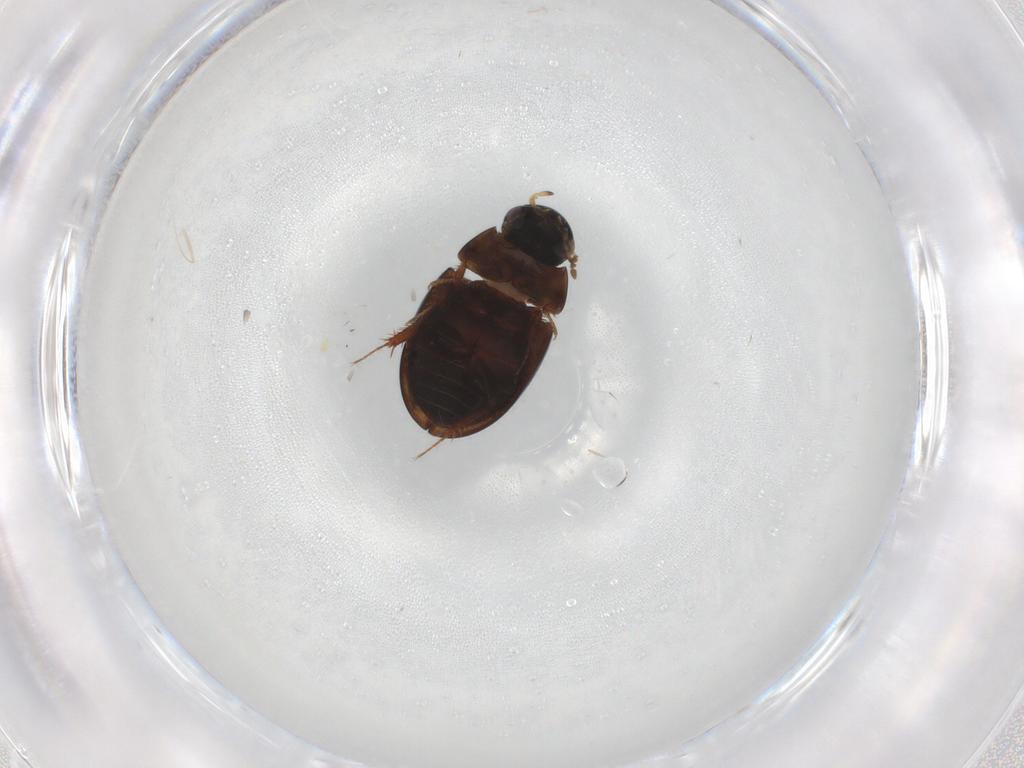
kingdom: Animalia
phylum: Arthropoda
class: Insecta
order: Coleoptera
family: Hydrophilidae
